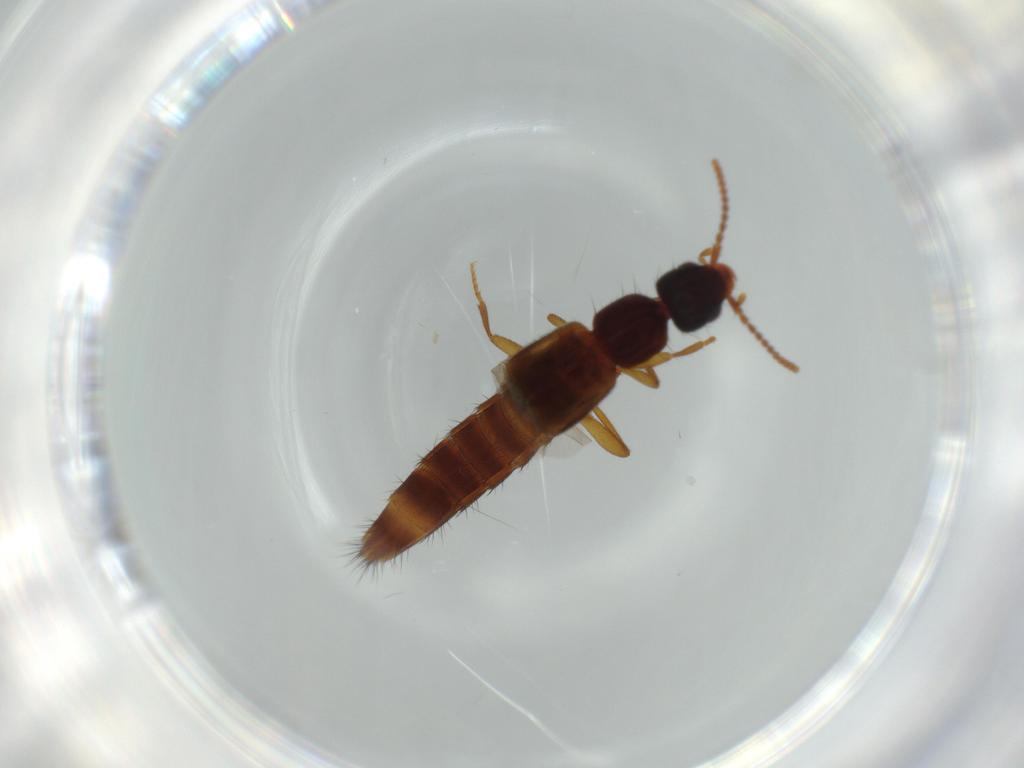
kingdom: Animalia
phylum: Arthropoda
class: Insecta
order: Coleoptera
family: Staphylinidae
